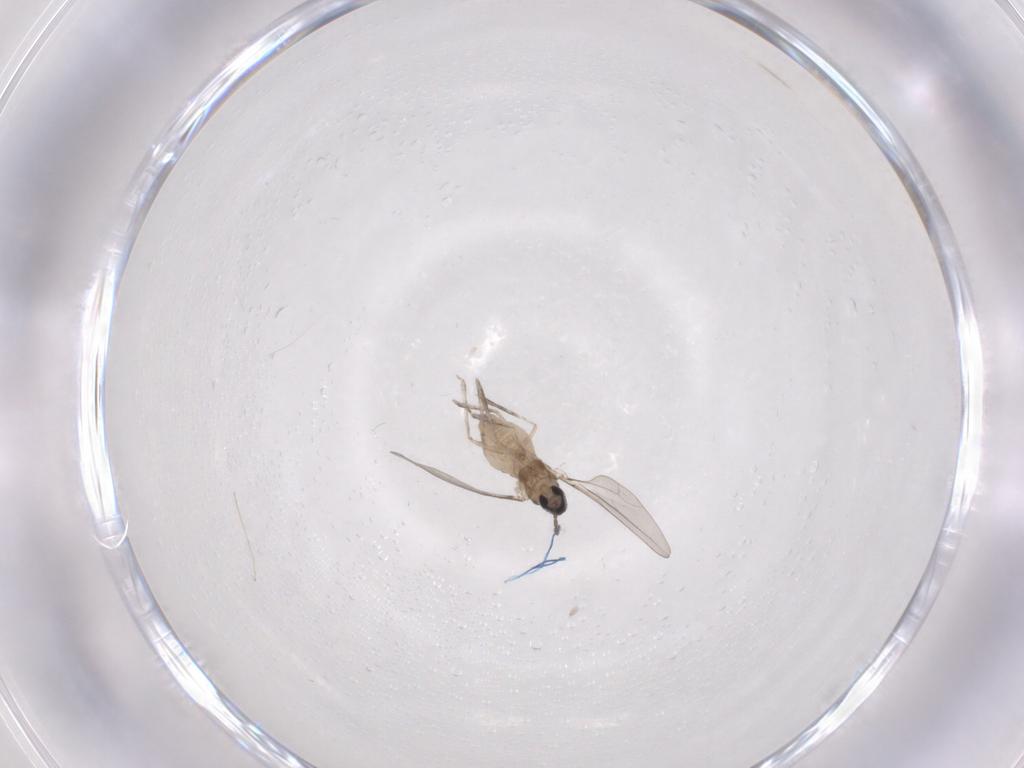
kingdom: Animalia
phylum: Arthropoda
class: Insecta
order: Diptera
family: Cecidomyiidae
